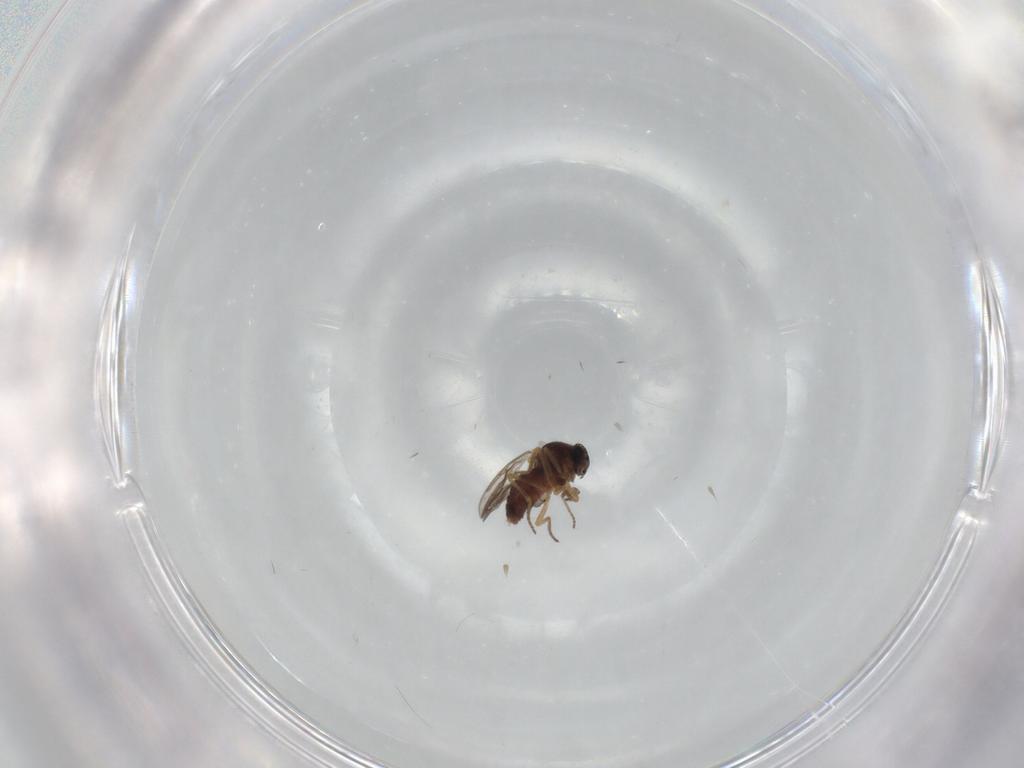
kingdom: Animalia
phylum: Arthropoda
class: Insecta
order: Diptera
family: Ceratopogonidae
